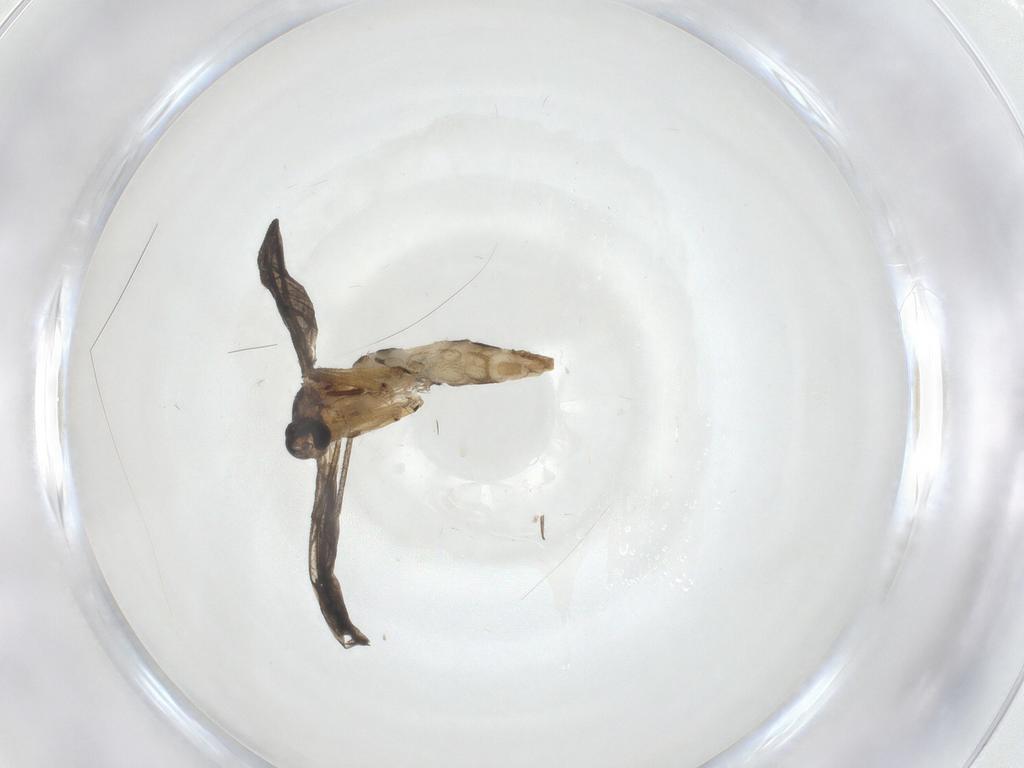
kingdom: Animalia
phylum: Arthropoda
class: Insecta
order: Diptera
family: Sciaridae
